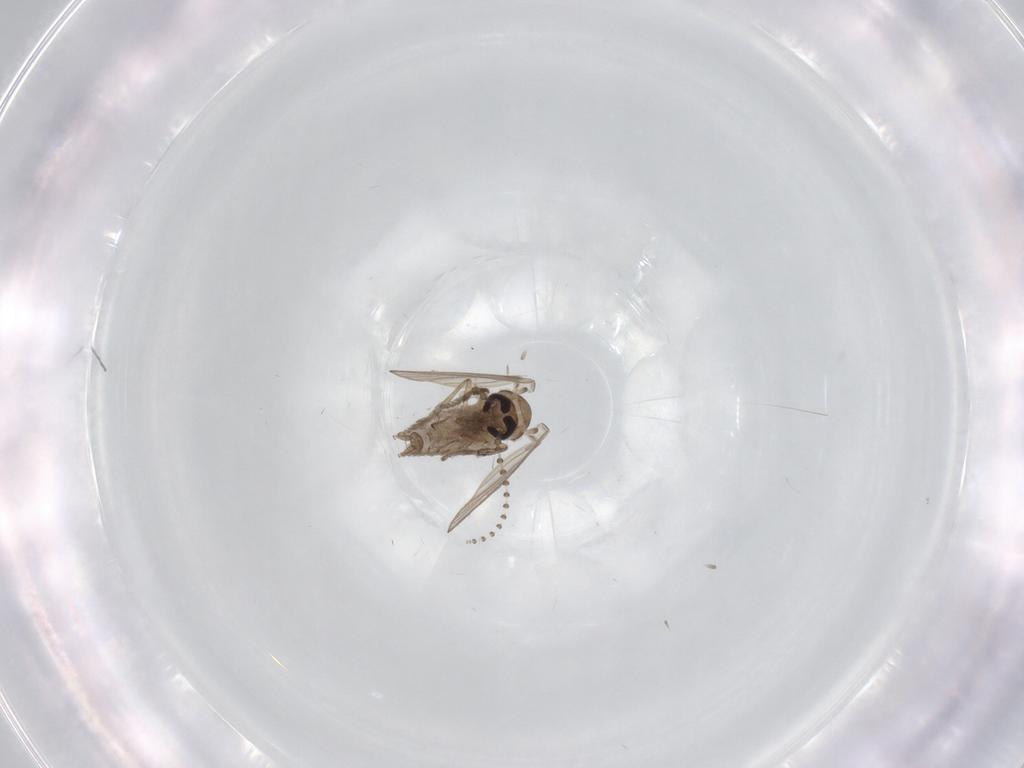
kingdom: Animalia
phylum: Arthropoda
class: Insecta
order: Diptera
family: Psychodidae
